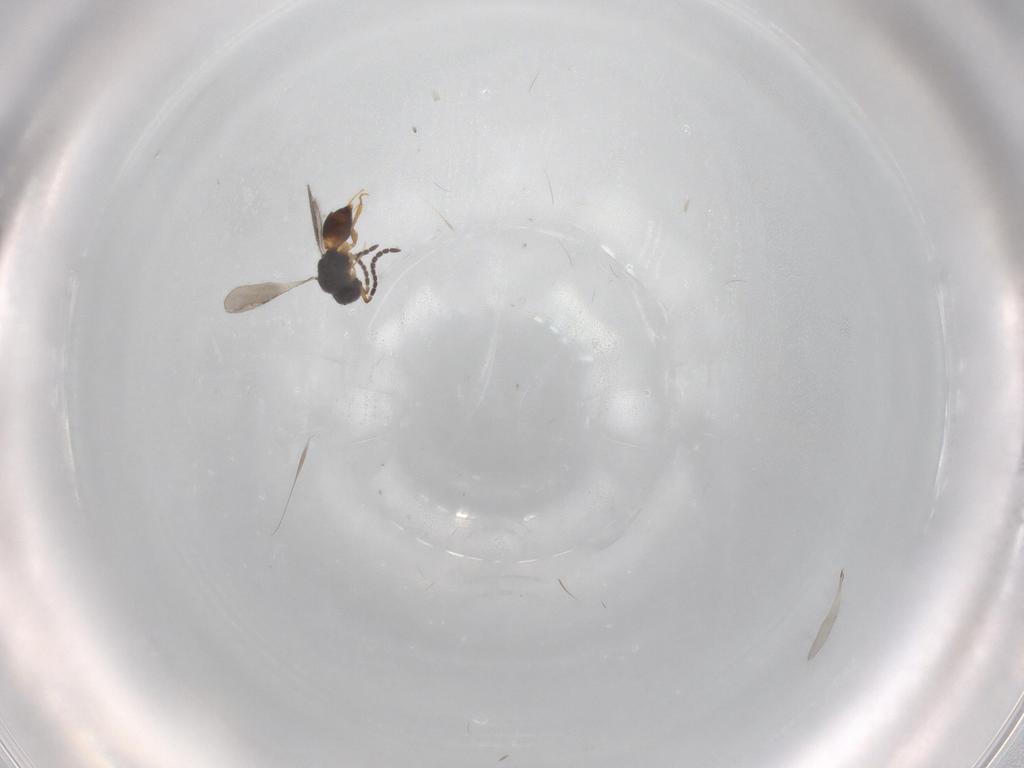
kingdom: Animalia
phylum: Arthropoda
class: Insecta
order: Hymenoptera
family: Ceraphronidae
